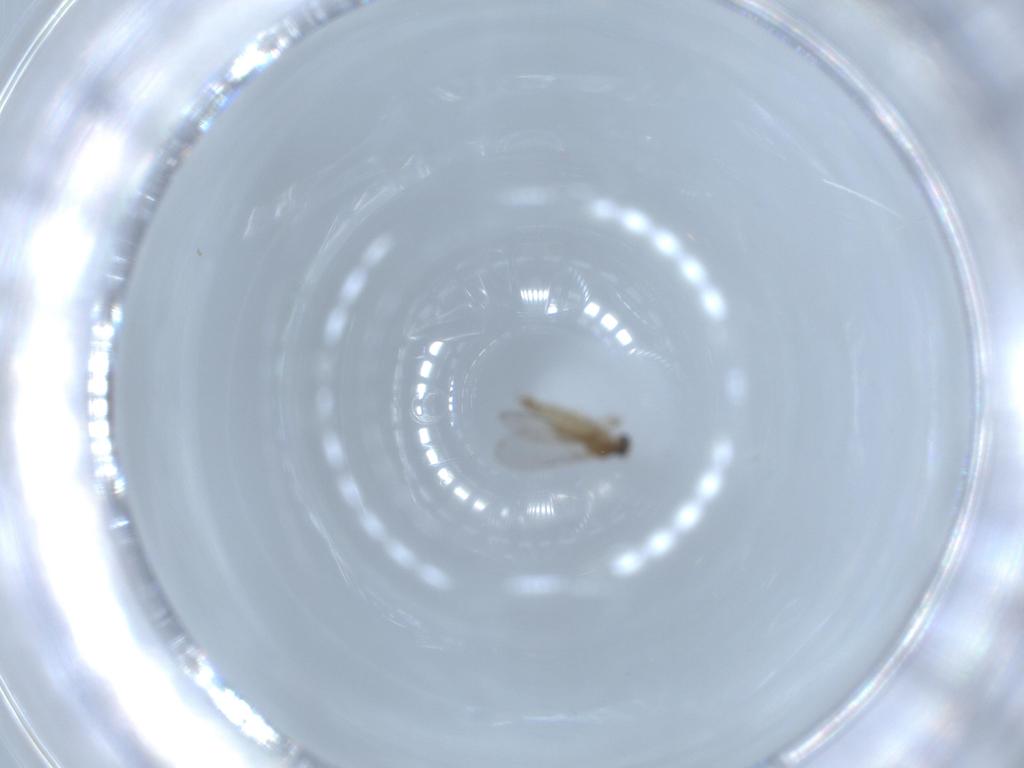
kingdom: Animalia
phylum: Arthropoda
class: Insecta
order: Diptera
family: Cecidomyiidae
